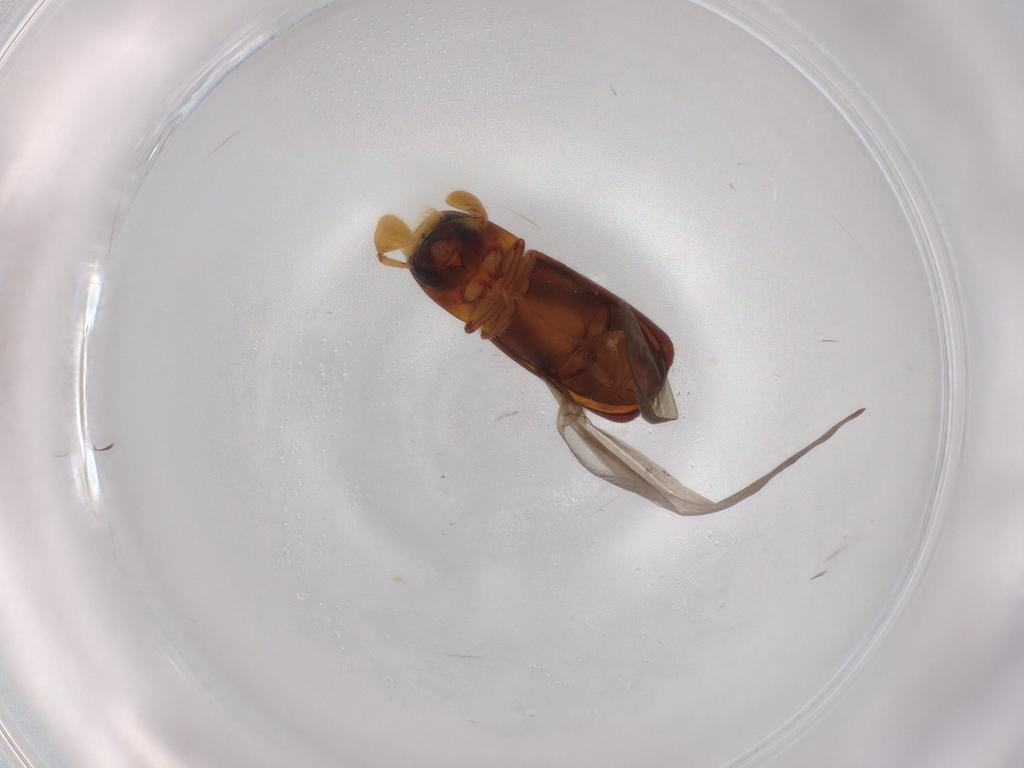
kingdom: Animalia
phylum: Arthropoda
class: Insecta
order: Coleoptera
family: Curculionidae
